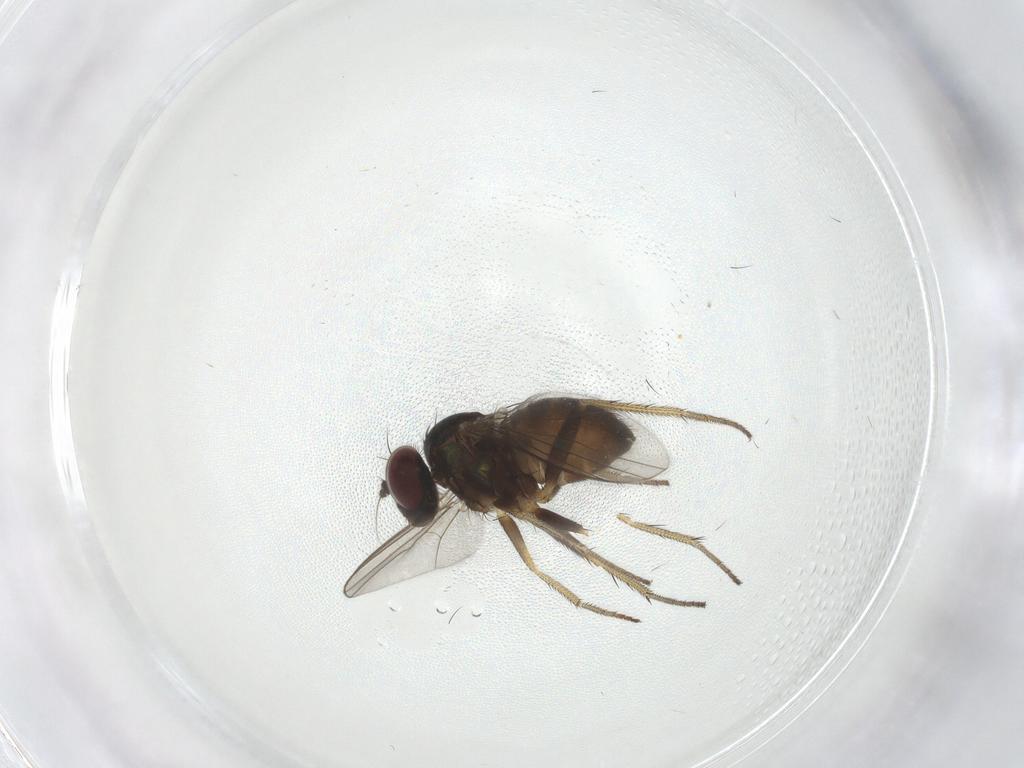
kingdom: Animalia
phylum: Arthropoda
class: Insecta
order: Diptera
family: Dolichopodidae
